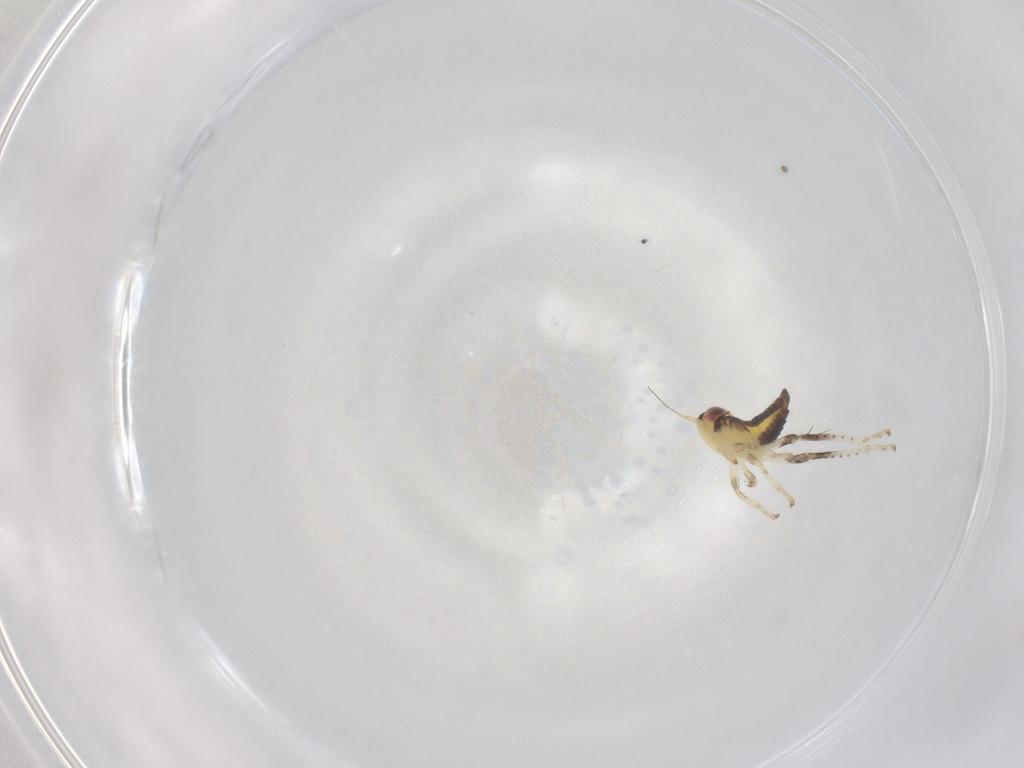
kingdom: Animalia
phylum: Arthropoda
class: Insecta
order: Hemiptera
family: Cicadellidae
